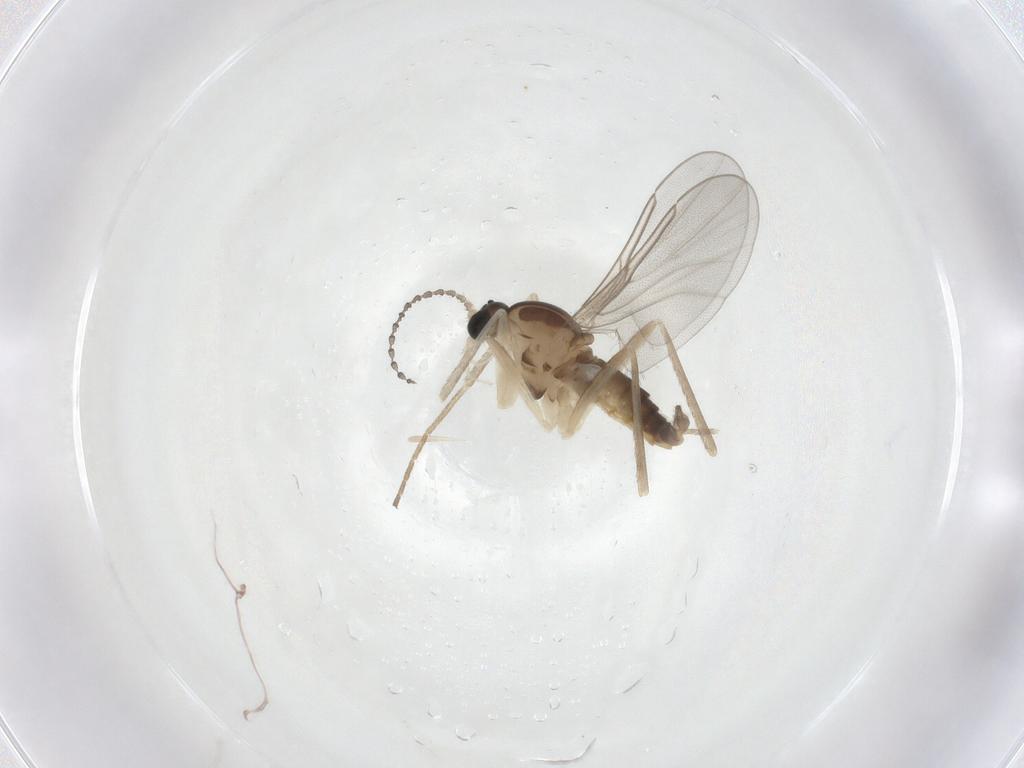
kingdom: Animalia
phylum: Arthropoda
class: Insecta
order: Diptera
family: Cecidomyiidae
